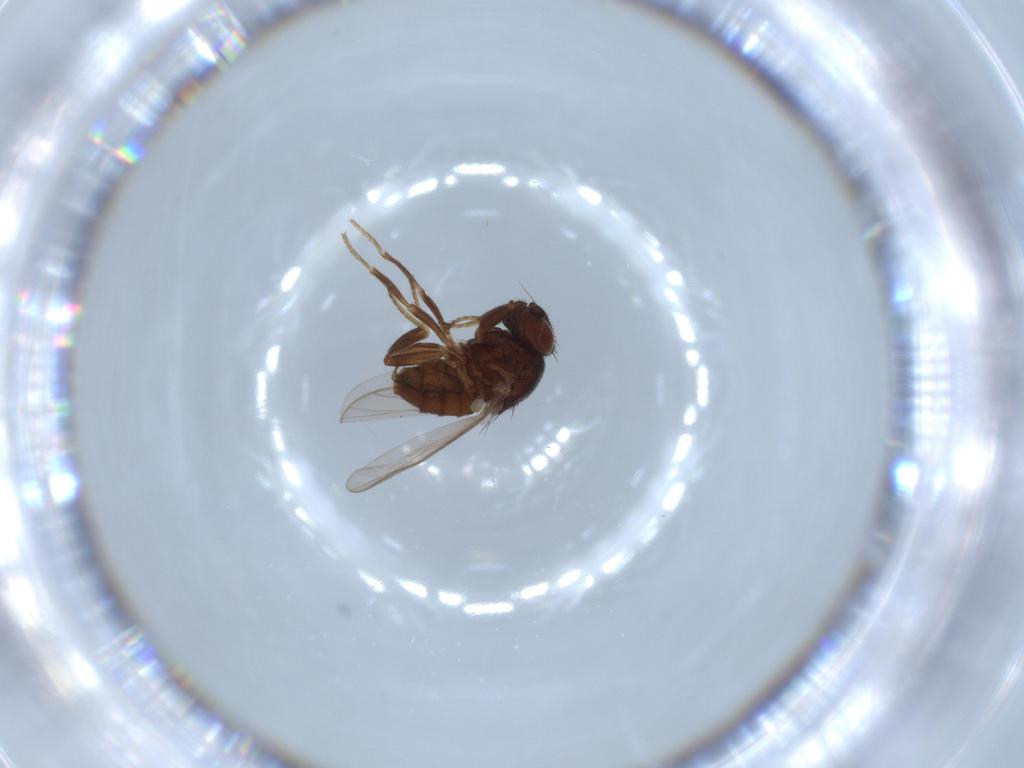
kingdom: Animalia
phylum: Arthropoda
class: Insecta
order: Diptera
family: Chloropidae
